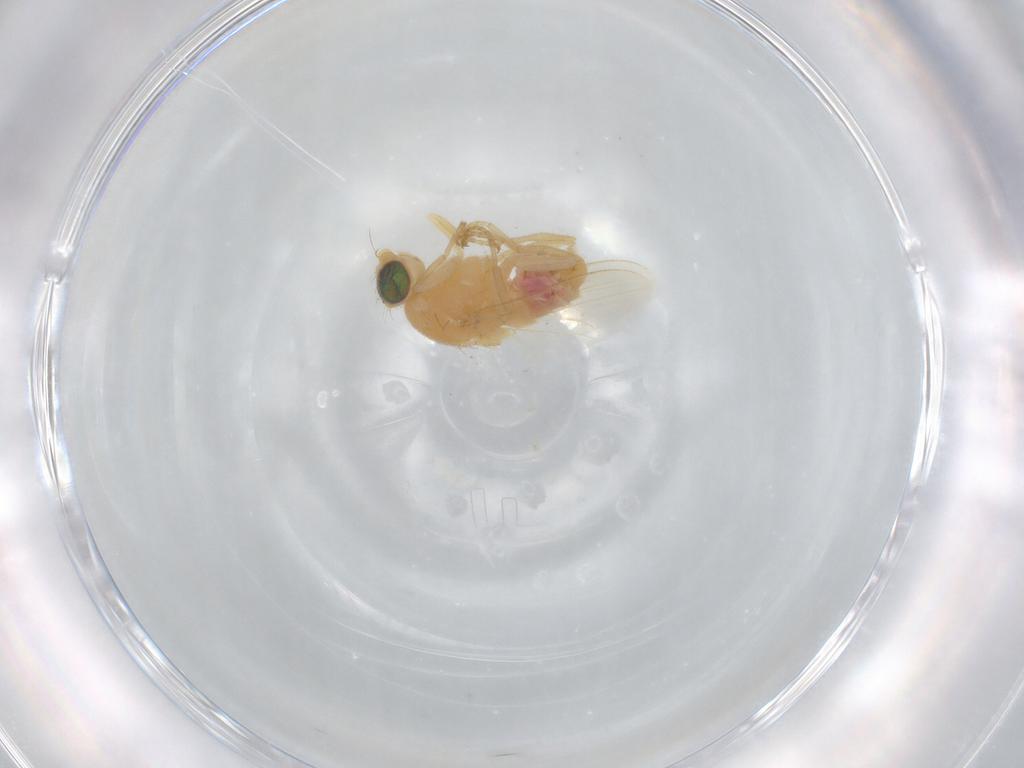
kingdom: Animalia
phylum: Arthropoda
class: Insecta
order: Diptera
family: Chyromyidae
